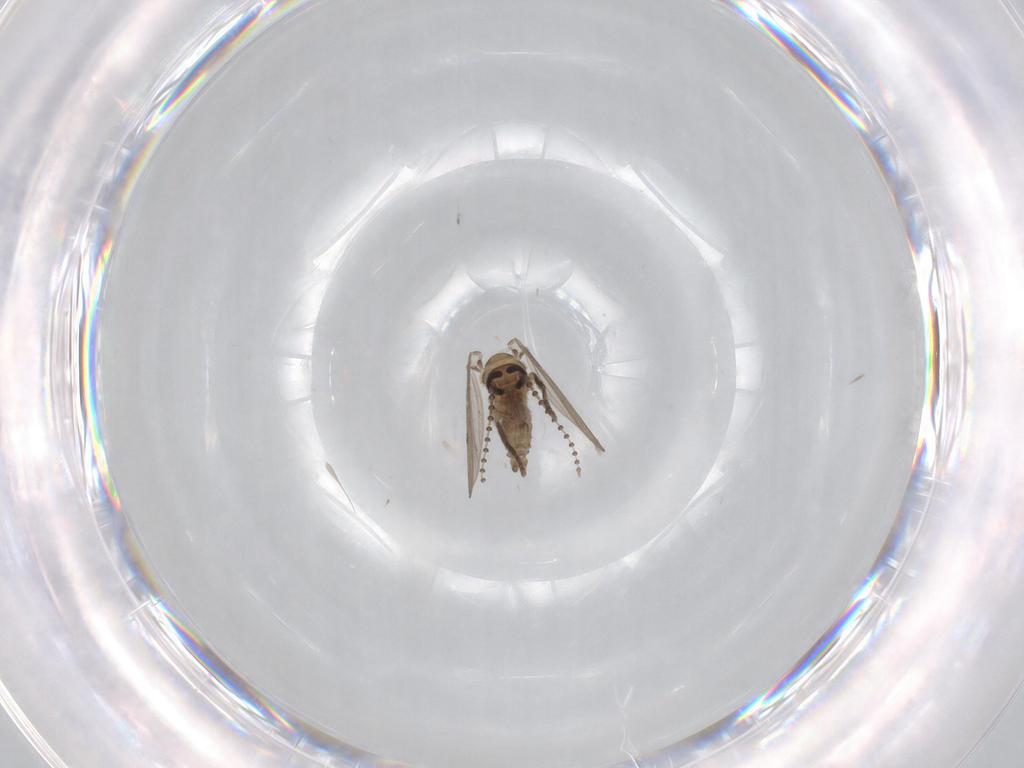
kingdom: Animalia
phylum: Arthropoda
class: Insecta
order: Diptera
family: Psychodidae
